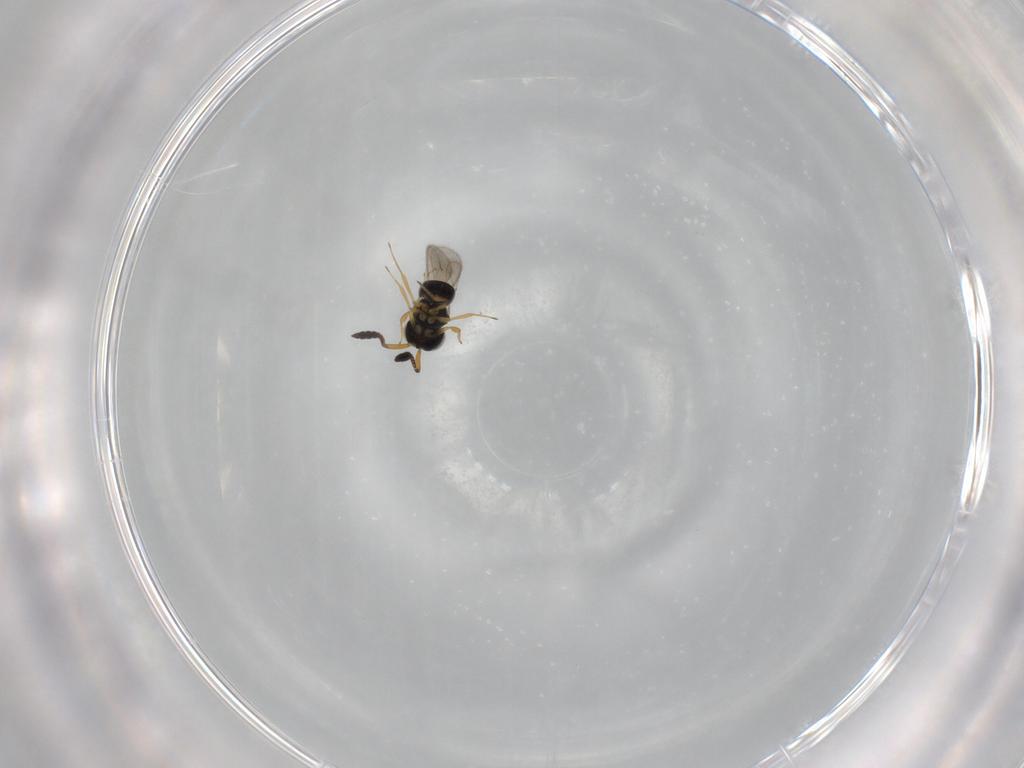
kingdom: Animalia
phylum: Arthropoda
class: Insecta
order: Hymenoptera
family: Scelionidae
